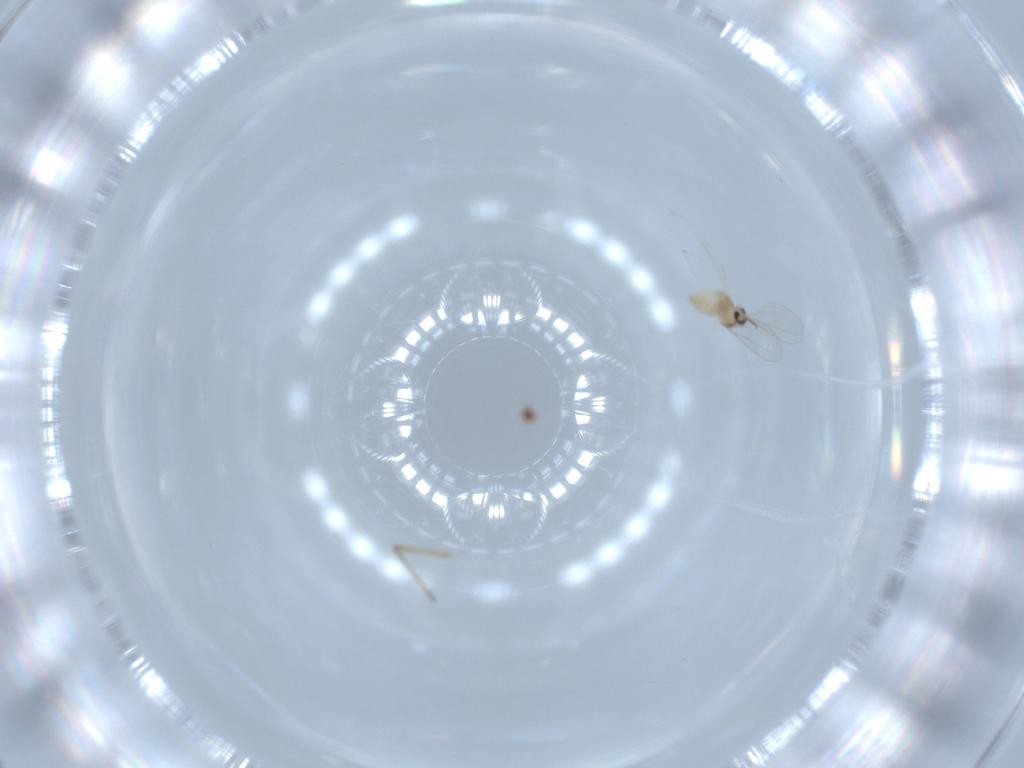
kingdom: Animalia
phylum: Arthropoda
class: Insecta
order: Diptera
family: Cecidomyiidae
